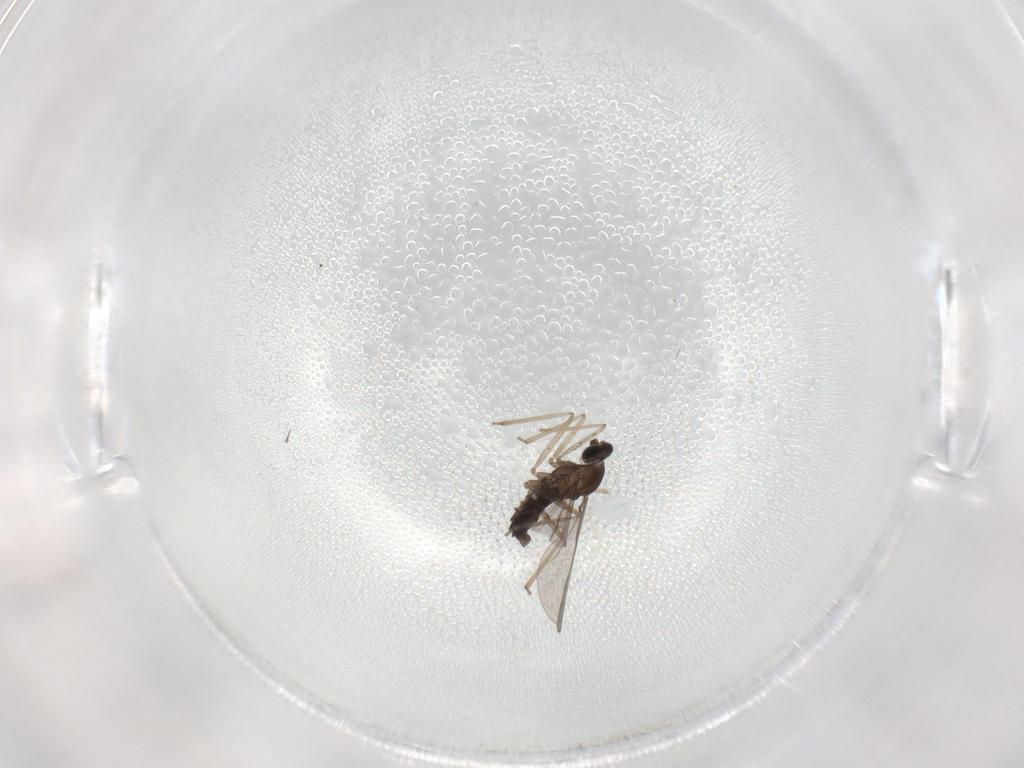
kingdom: Animalia
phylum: Arthropoda
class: Insecta
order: Diptera
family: Cecidomyiidae
